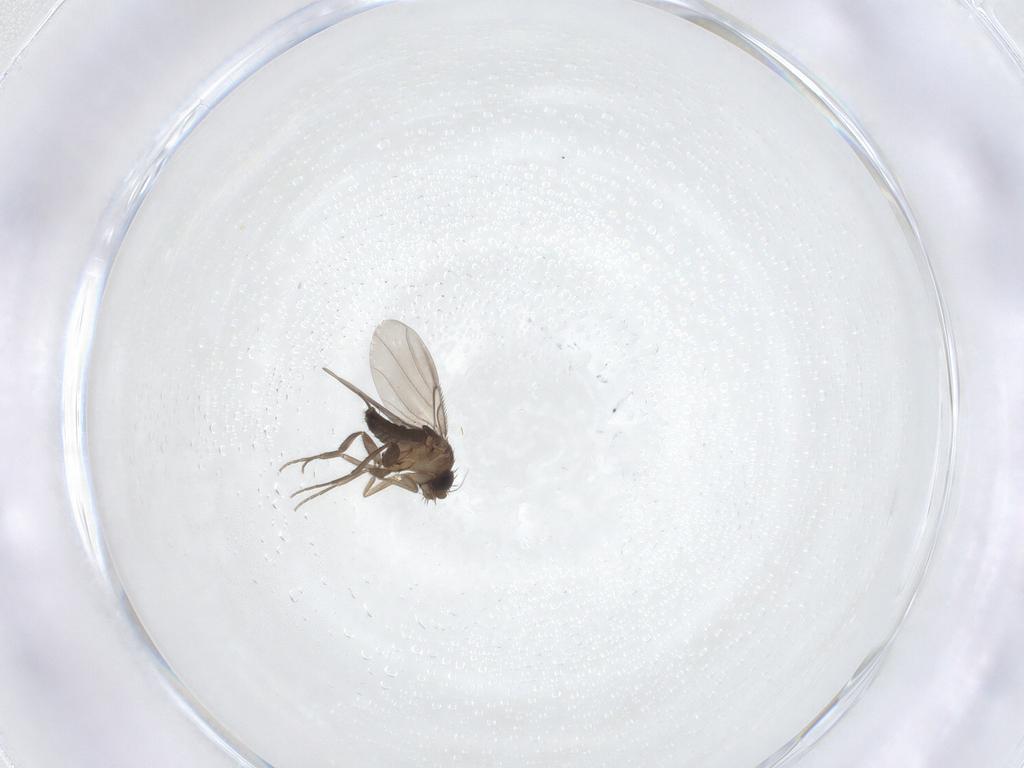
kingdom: Animalia
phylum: Arthropoda
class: Insecta
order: Diptera
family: Phoridae
